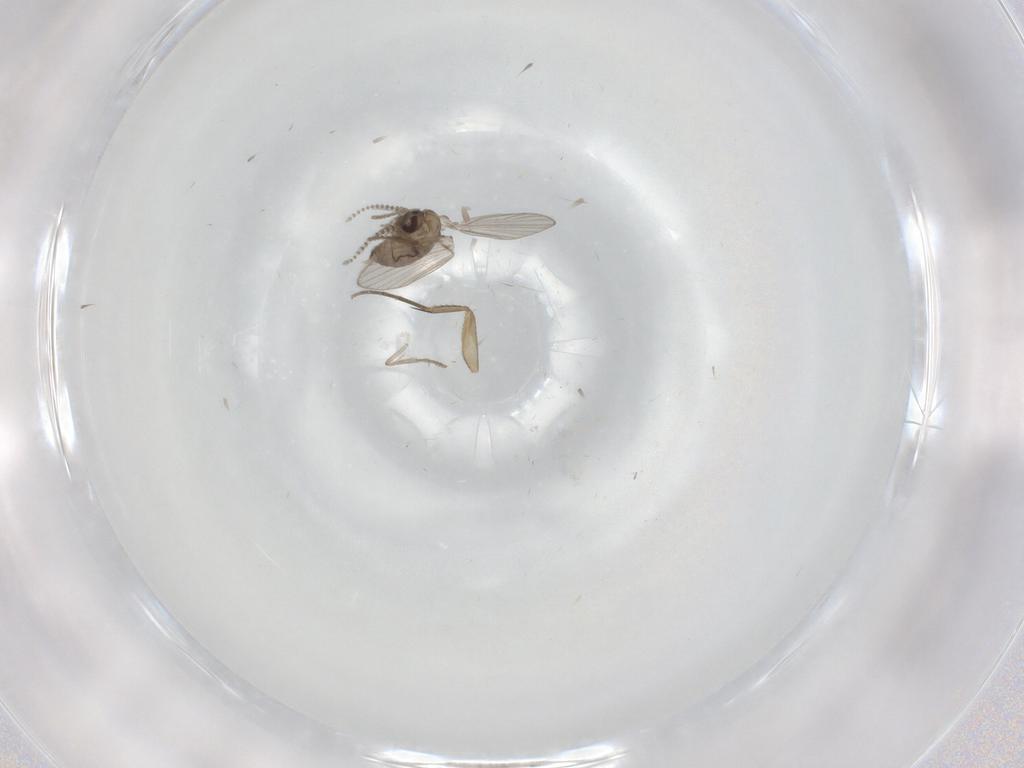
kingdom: Animalia
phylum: Arthropoda
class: Insecta
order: Diptera
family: Psychodidae
